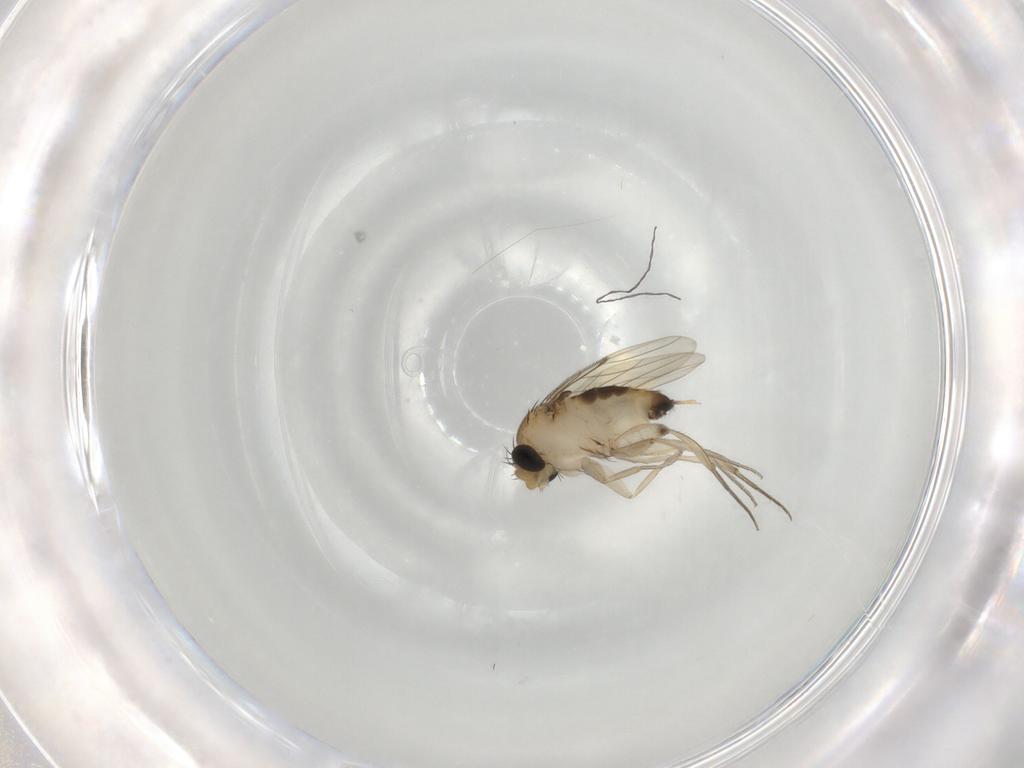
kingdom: Animalia
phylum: Arthropoda
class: Insecta
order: Diptera
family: Phoridae
